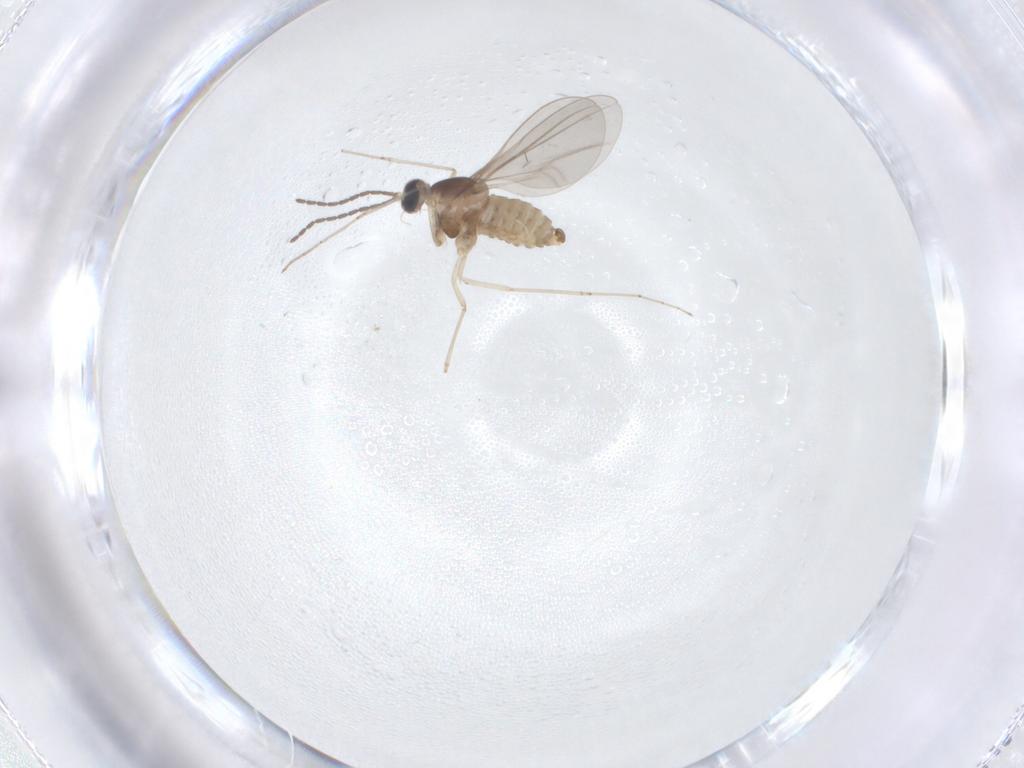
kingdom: Animalia
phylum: Arthropoda
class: Insecta
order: Diptera
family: Cecidomyiidae
